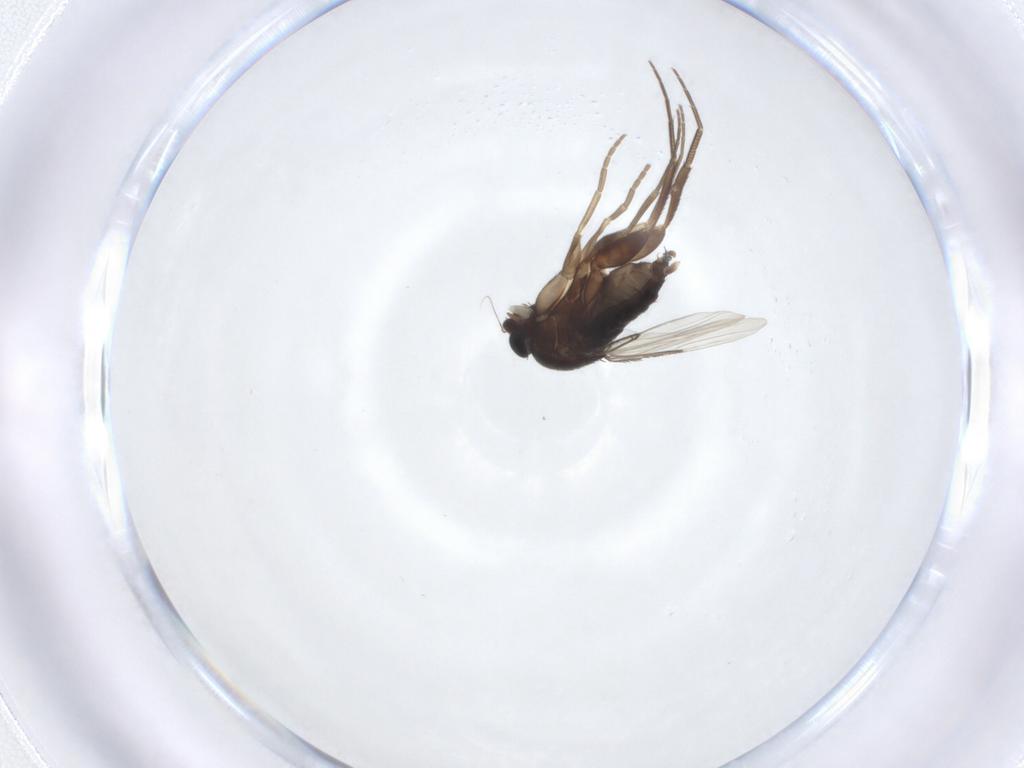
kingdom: Animalia
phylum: Arthropoda
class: Insecta
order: Diptera
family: Phoridae
